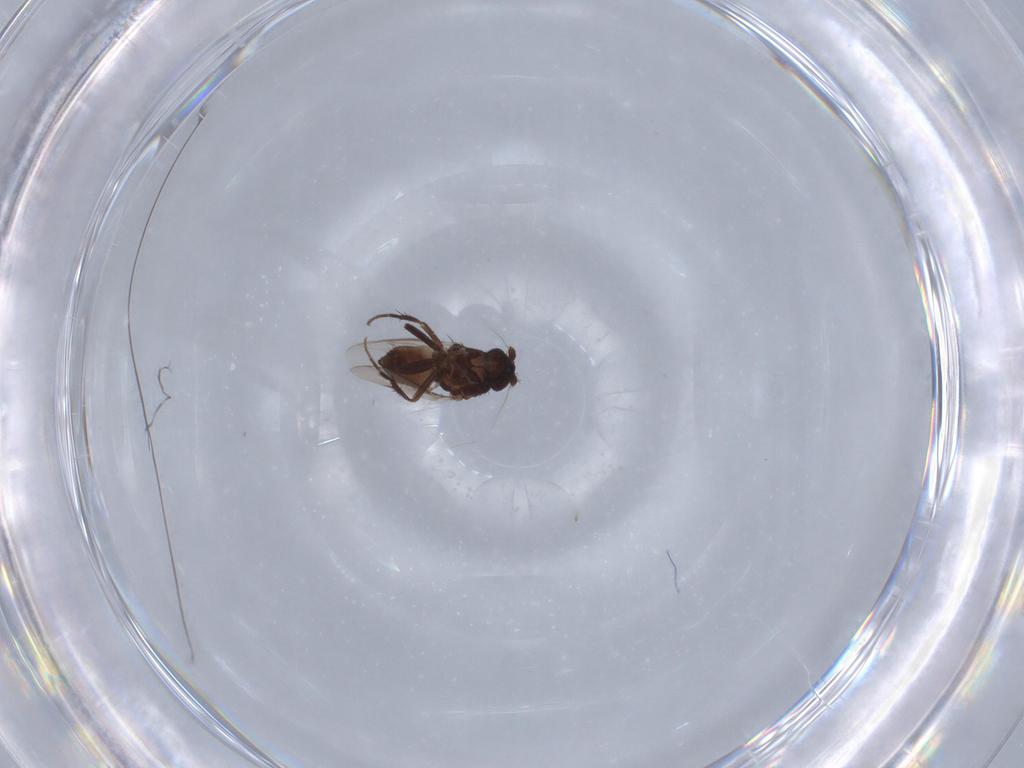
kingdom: Animalia
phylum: Arthropoda
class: Insecta
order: Diptera
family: Sphaeroceridae
